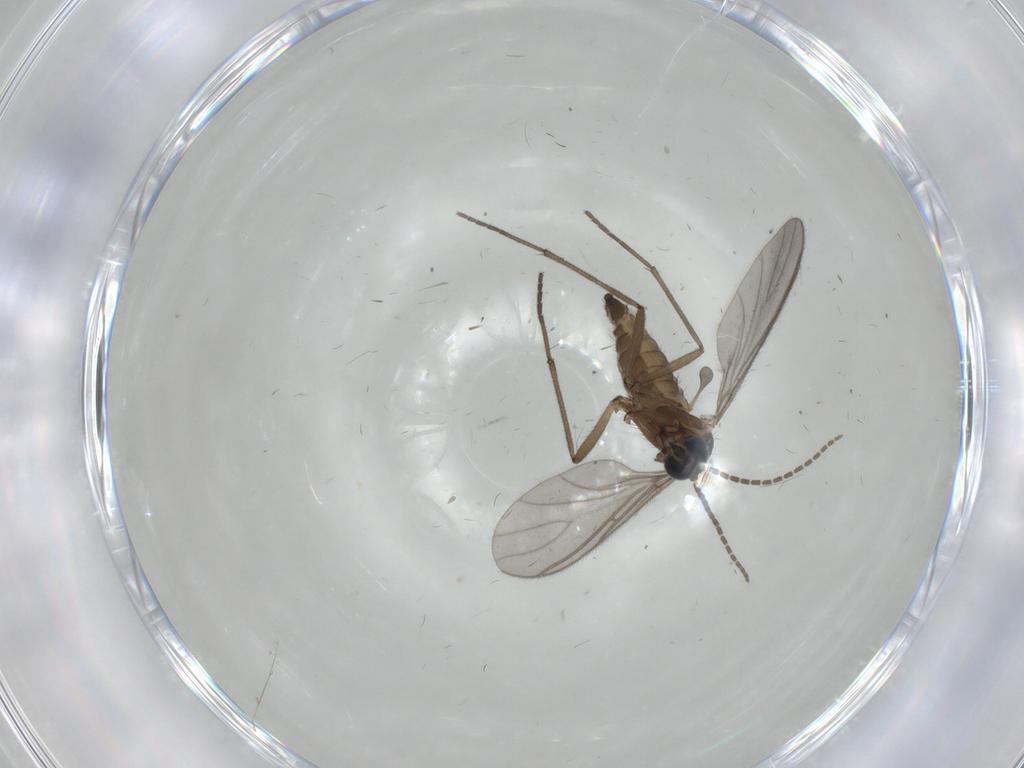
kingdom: Animalia
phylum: Arthropoda
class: Insecta
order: Diptera
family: Sciaridae
